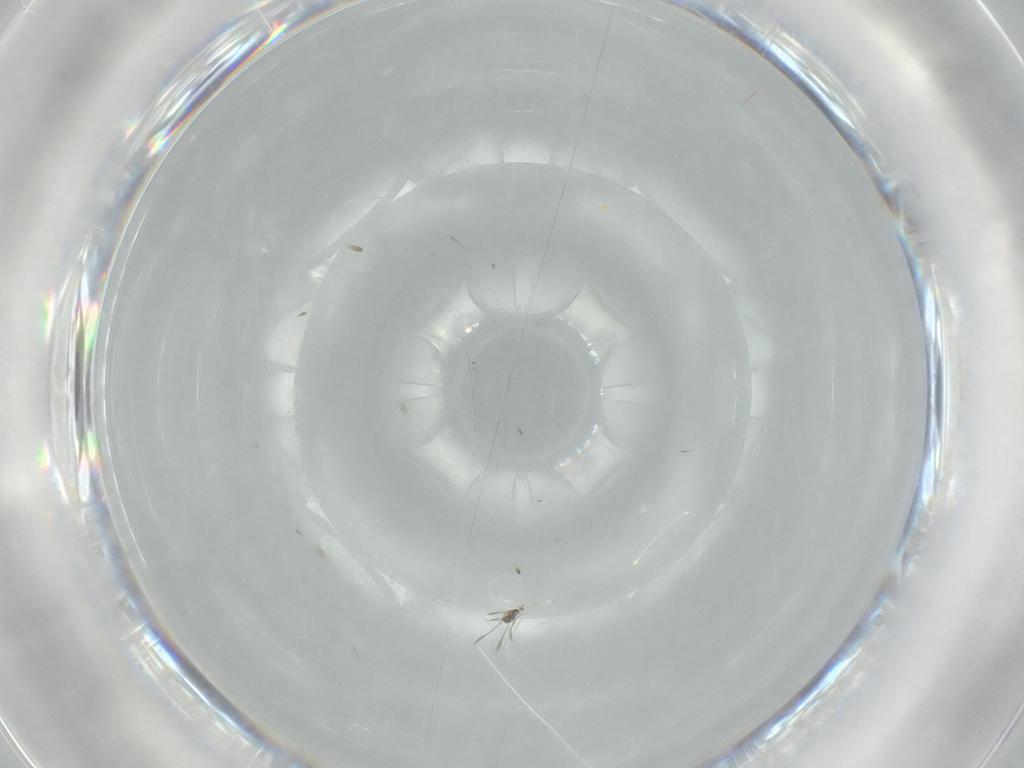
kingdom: Animalia
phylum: Arthropoda
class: Insecta
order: Hymenoptera
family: Mymaridae
